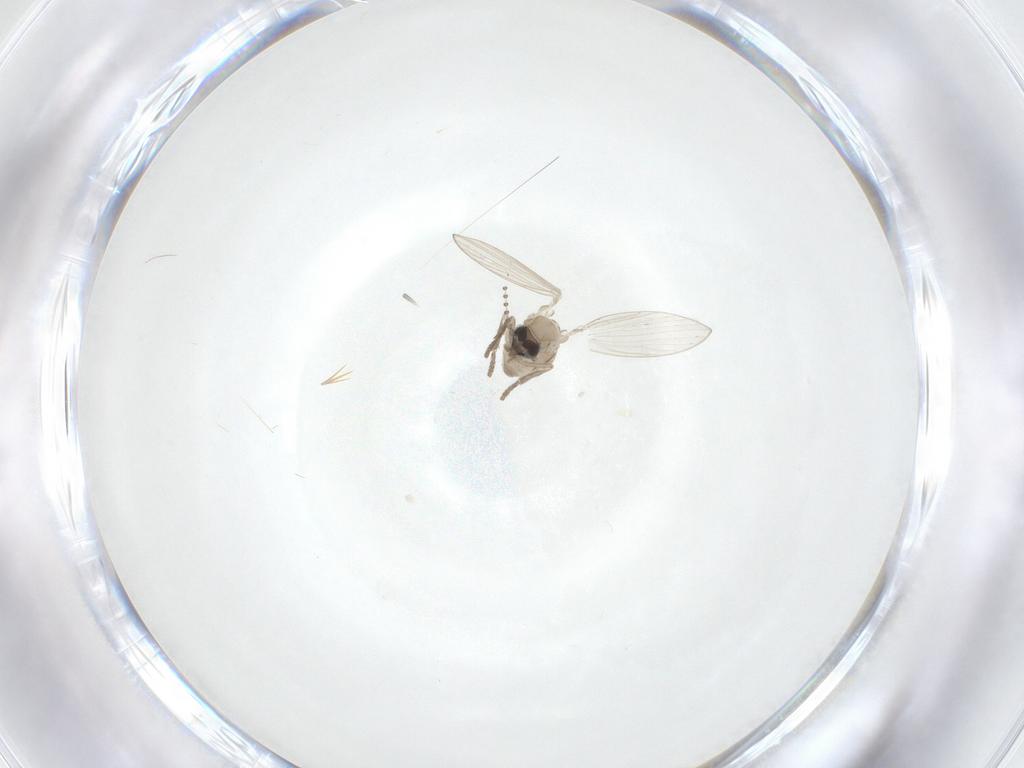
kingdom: Animalia
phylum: Arthropoda
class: Insecta
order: Diptera
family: Psychodidae
